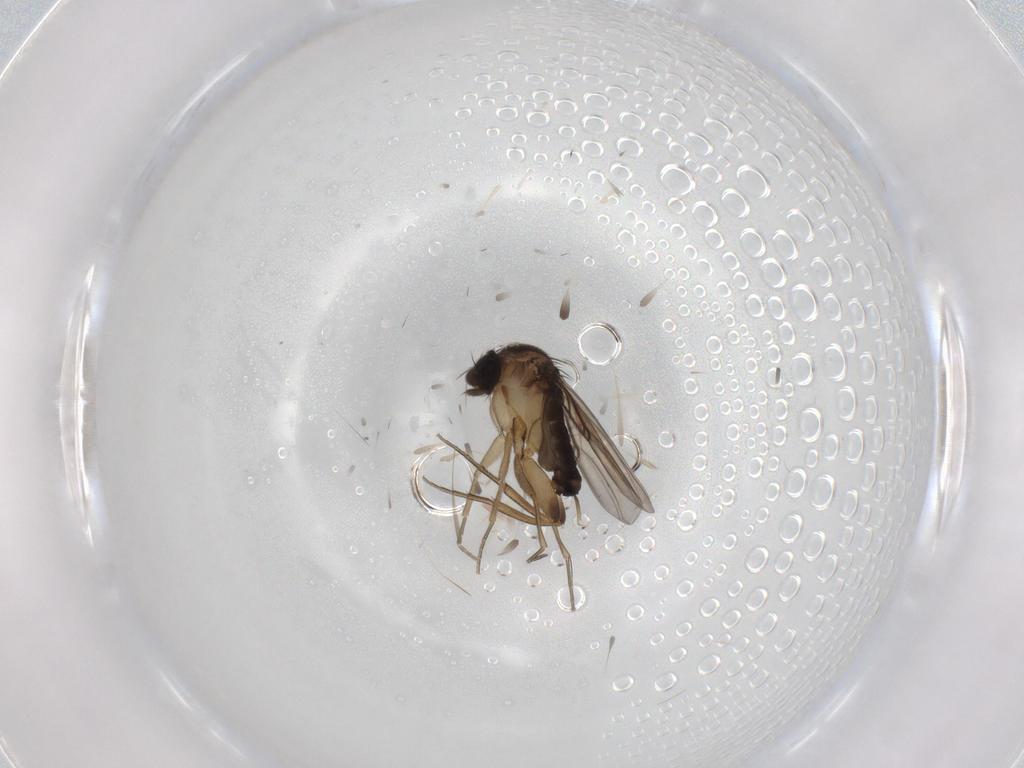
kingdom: Animalia
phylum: Arthropoda
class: Insecta
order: Diptera
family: Phoridae
